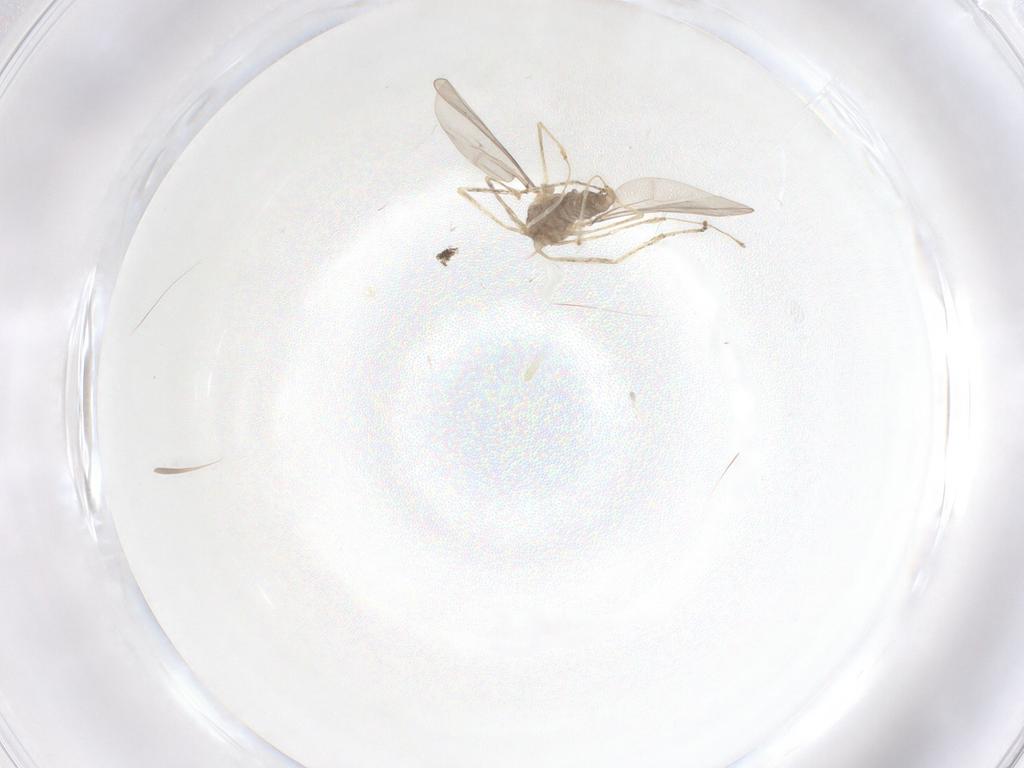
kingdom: Animalia
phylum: Arthropoda
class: Insecta
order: Diptera
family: Cecidomyiidae
